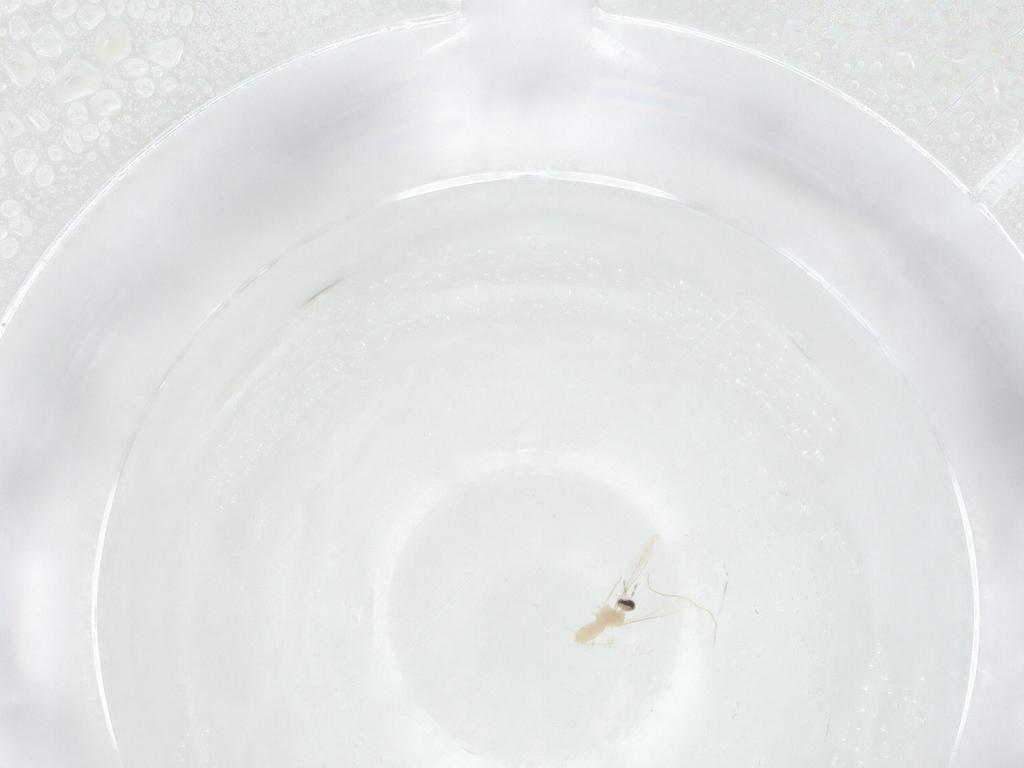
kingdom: Animalia
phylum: Arthropoda
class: Insecta
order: Diptera
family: Cecidomyiidae
